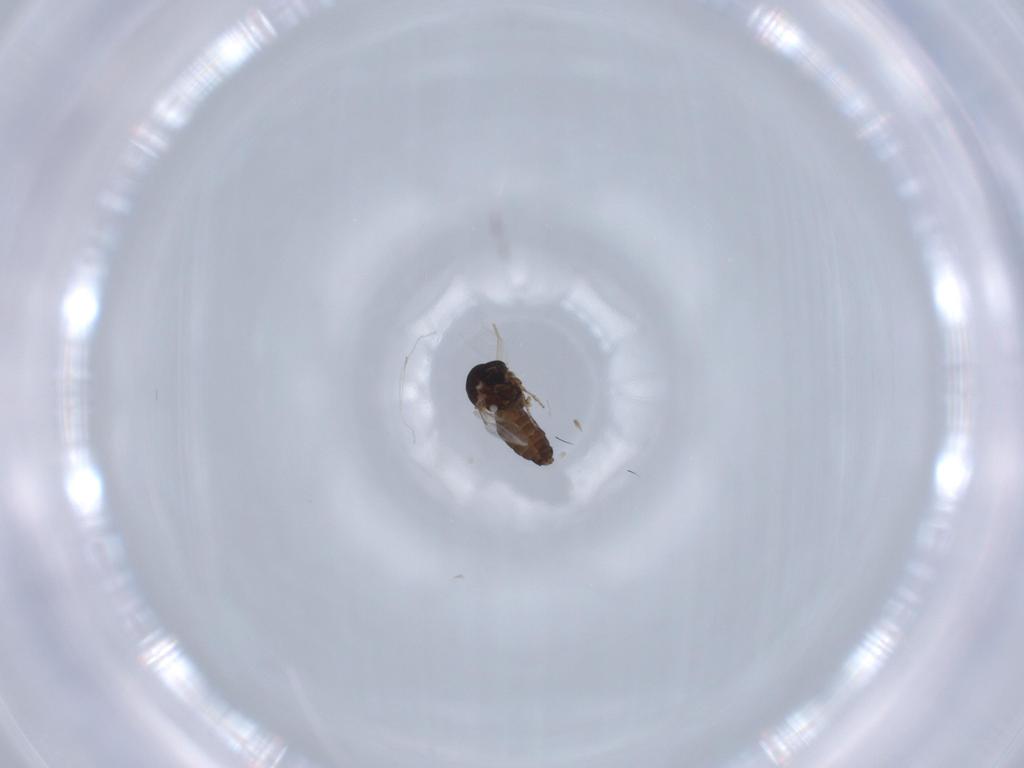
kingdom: Animalia
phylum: Arthropoda
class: Insecta
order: Diptera
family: Ceratopogonidae
